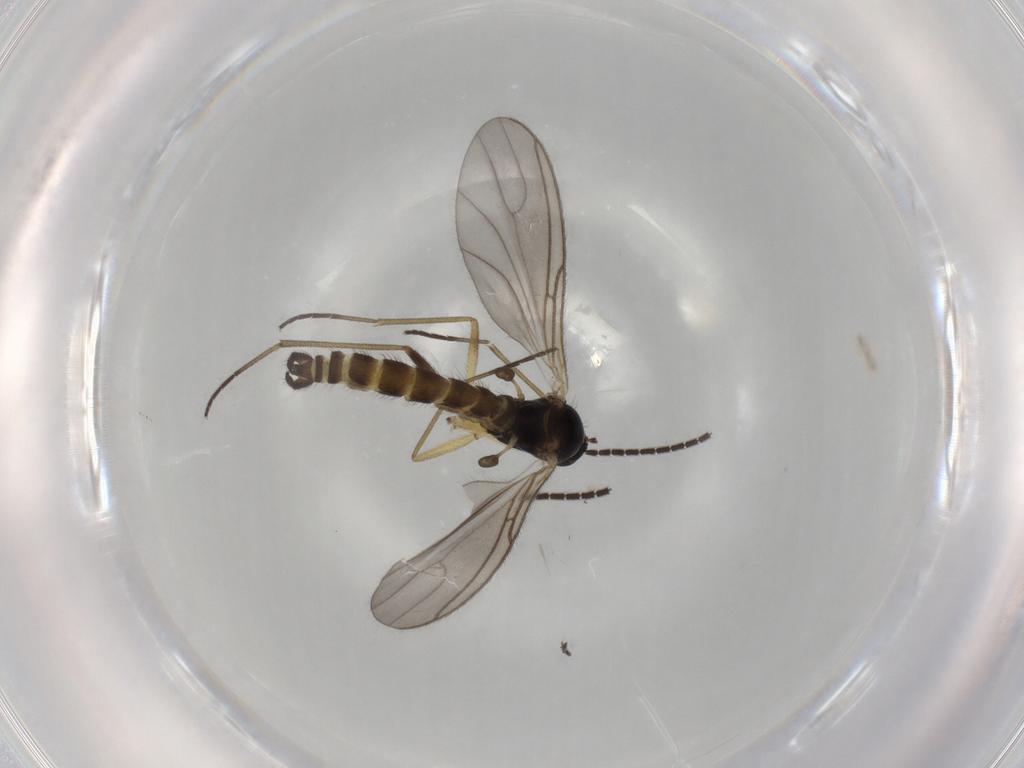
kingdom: Animalia
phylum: Arthropoda
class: Insecta
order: Diptera
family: Sciaridae
